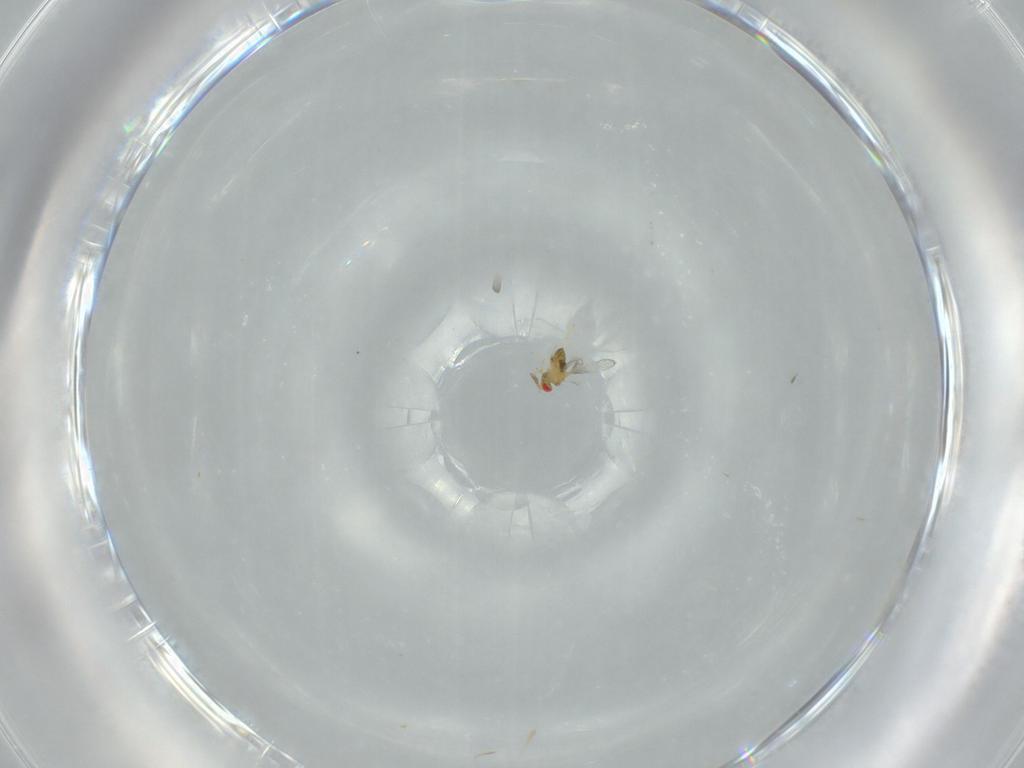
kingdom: Animalia
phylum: Arthropoda
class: Insecta
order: Hymenoptera
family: Trichogrammatidae
